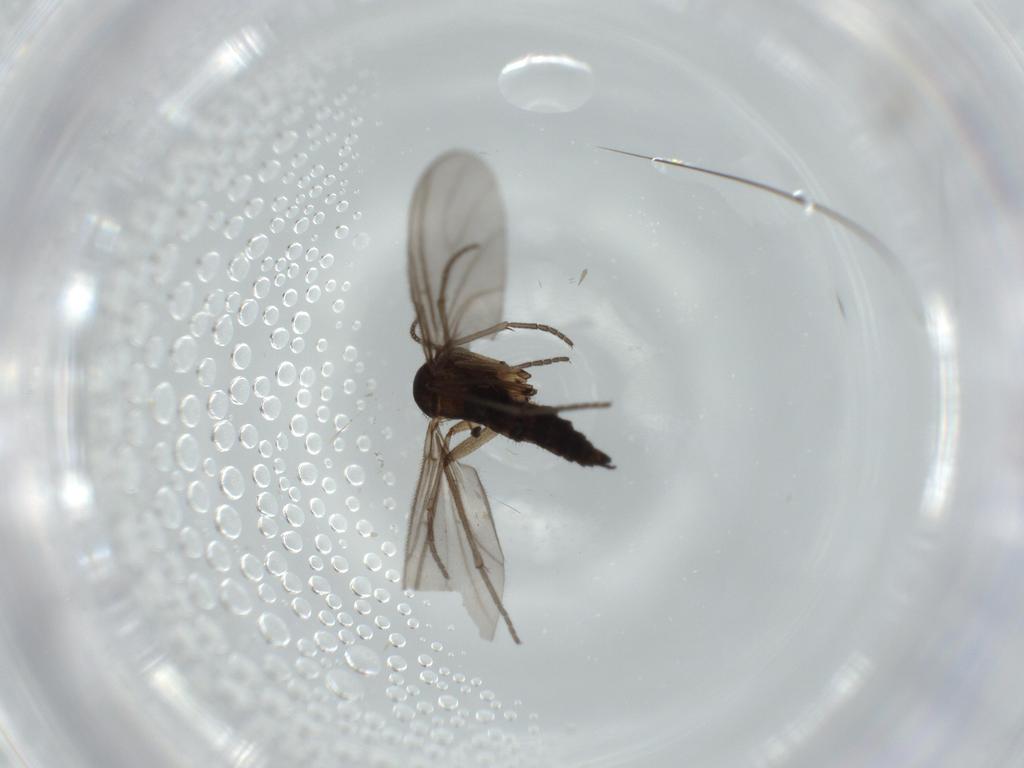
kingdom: Animalia
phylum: Arthropoda
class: Insecta
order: Diptera
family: Sciaridae
